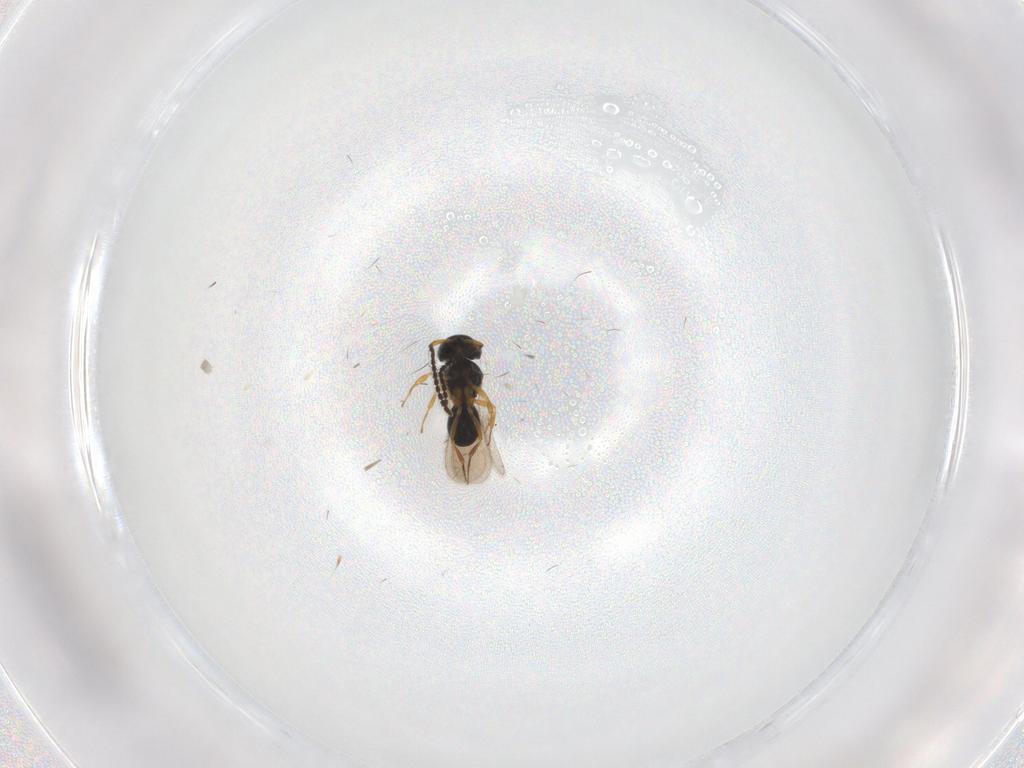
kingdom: Animalia
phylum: Arthropoda
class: Insecta
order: Hymenoptera
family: Scelionidae
